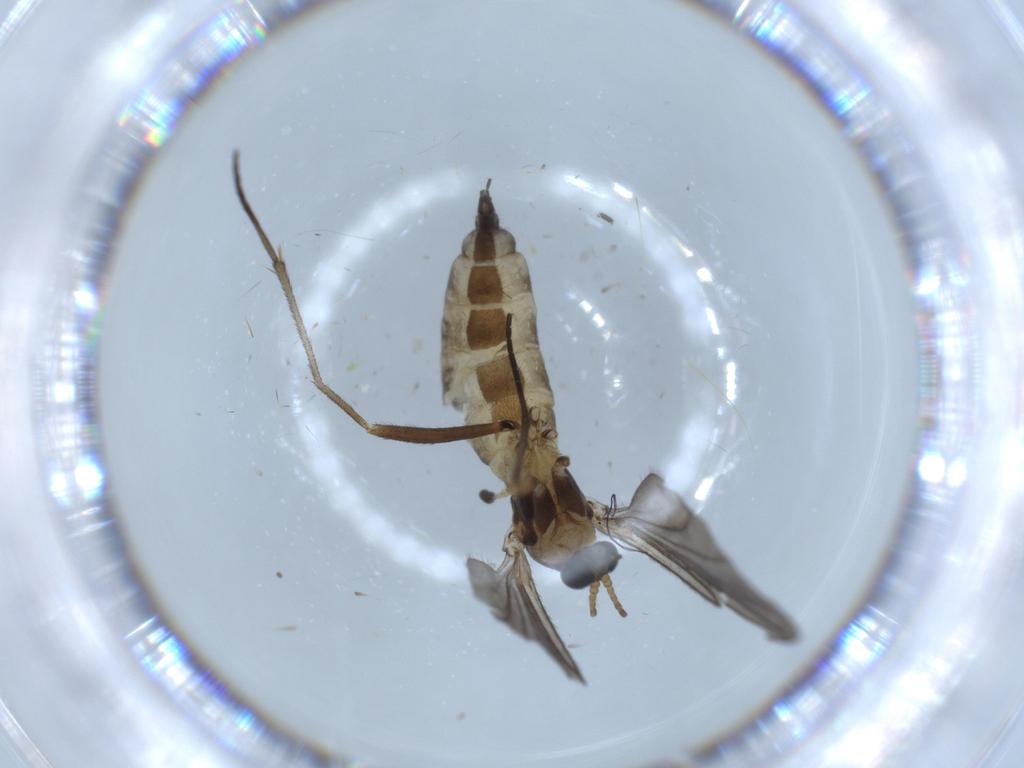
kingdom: Animalia
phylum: Arthropoda
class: Insecta
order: Diptera
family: Sciaridae
